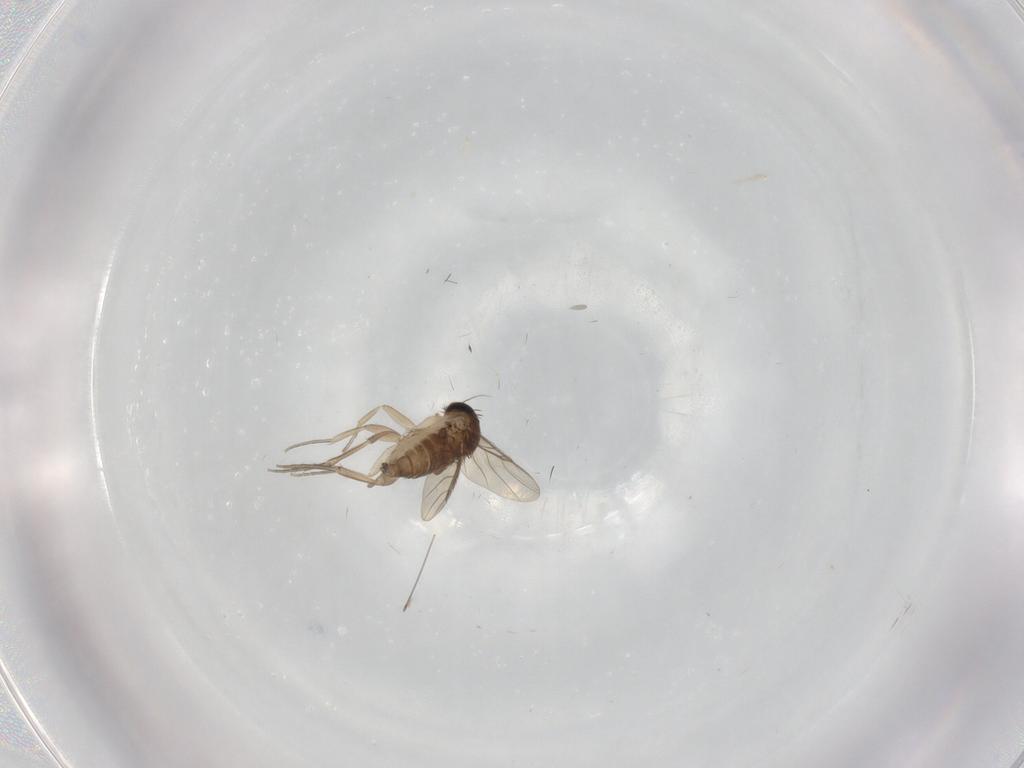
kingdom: Animalia
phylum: Arthropoda
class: Insecta
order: Diptera
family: Phoridae
